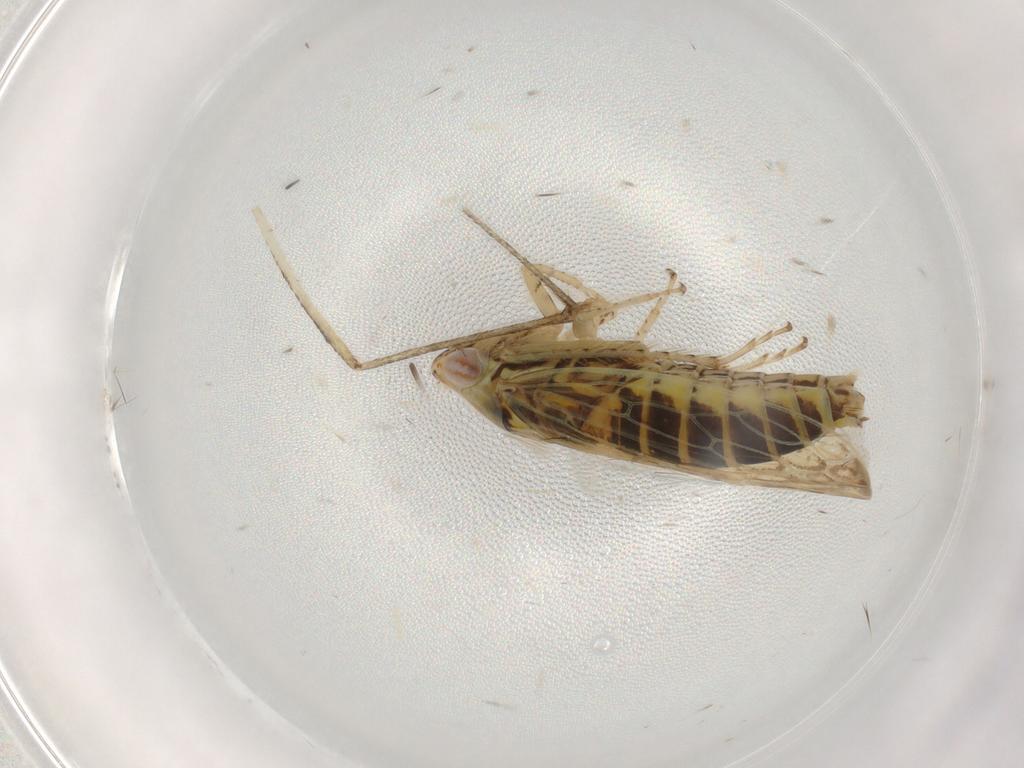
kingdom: Animalia
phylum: Arthropoda
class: Insecta
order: Hemiptera
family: Cicadellidae
